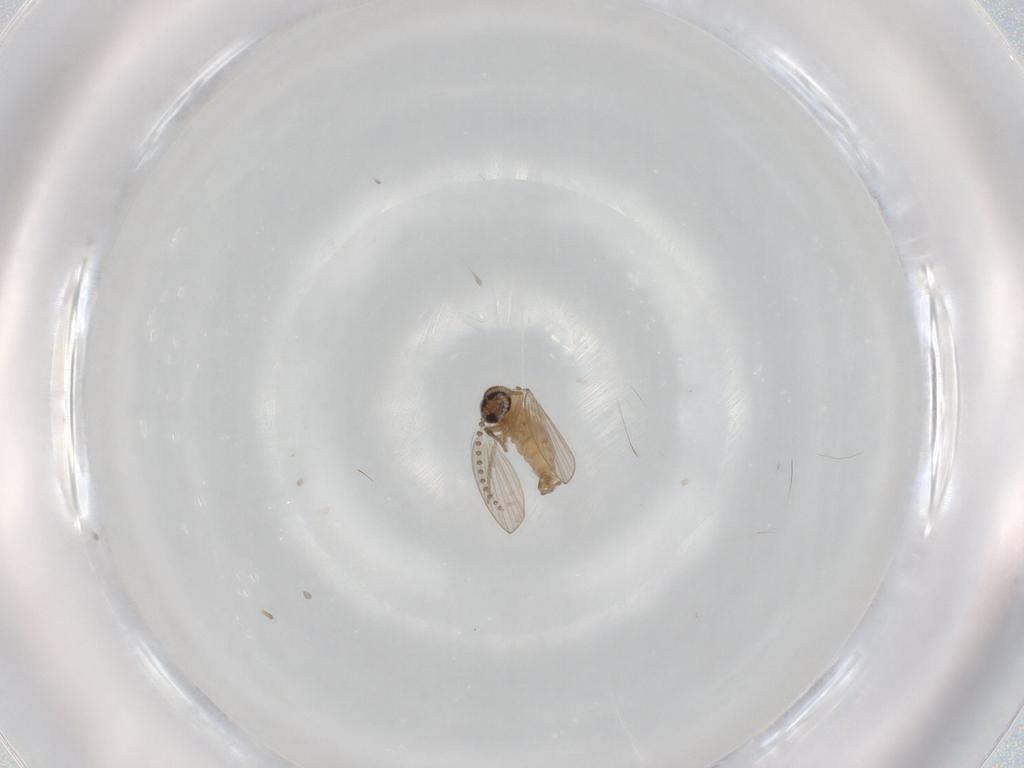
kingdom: Animalia
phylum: Arthropoda
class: Insecta
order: Diptera
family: Psychodidae
